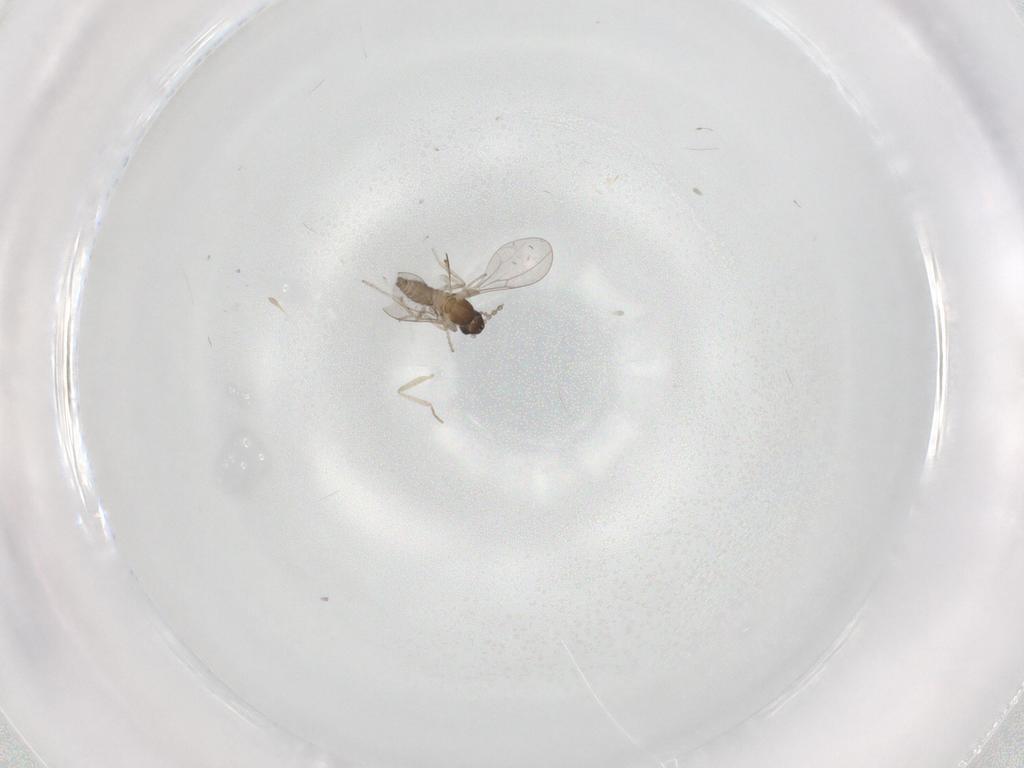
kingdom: Animalia
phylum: Arthropoda
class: Insecta
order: Diptera
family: Cecidomyiidae
